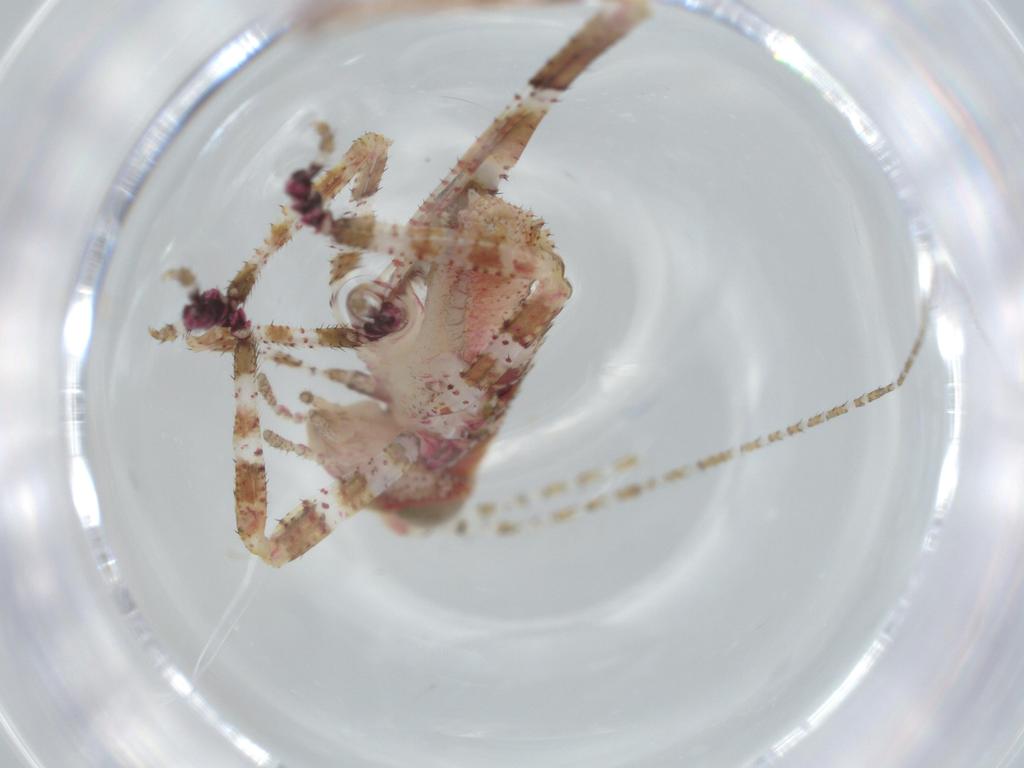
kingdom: Animalia
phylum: Arthropoda
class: Insecta
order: Orthoptera
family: Tettigoniidae
